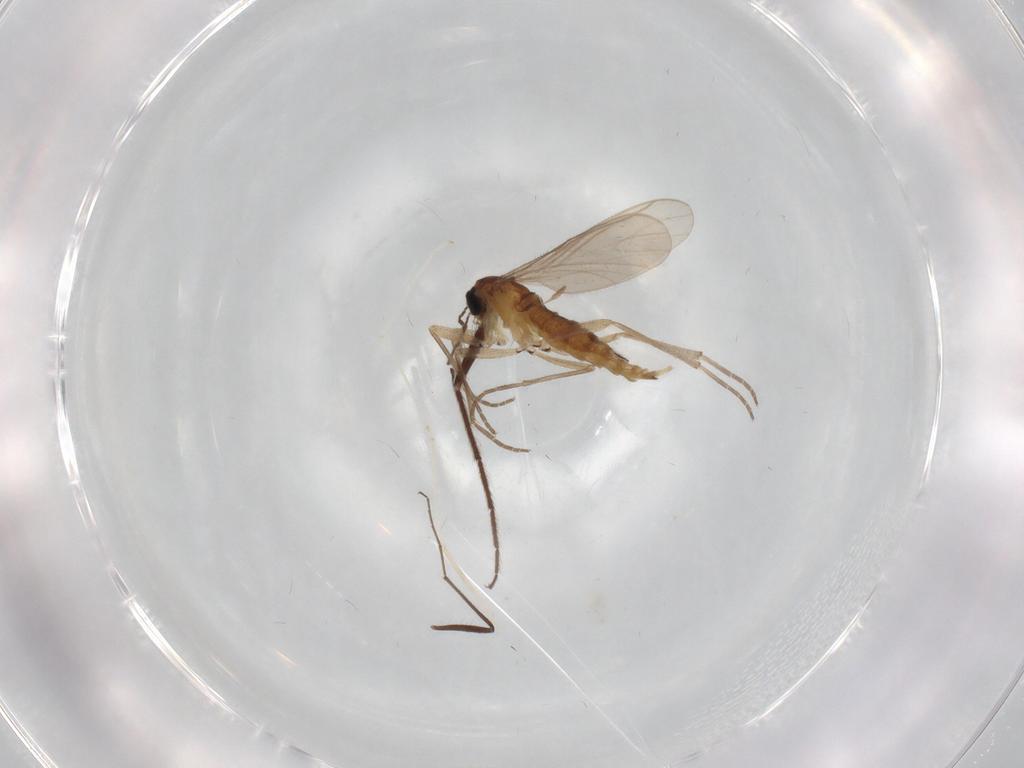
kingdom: Animalia
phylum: Arthropoda
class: Insecta
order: Diptera
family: Sciaridae
